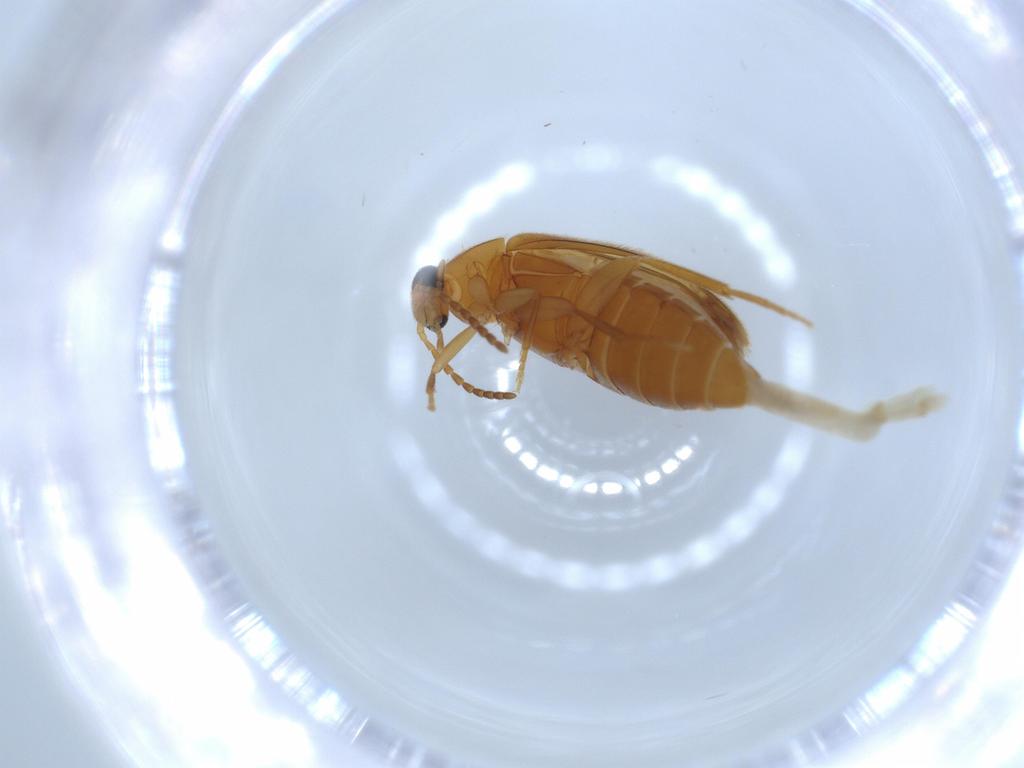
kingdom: Animalia
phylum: Arthropoda
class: Insecta
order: Coleoptera
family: Scraptiidae
